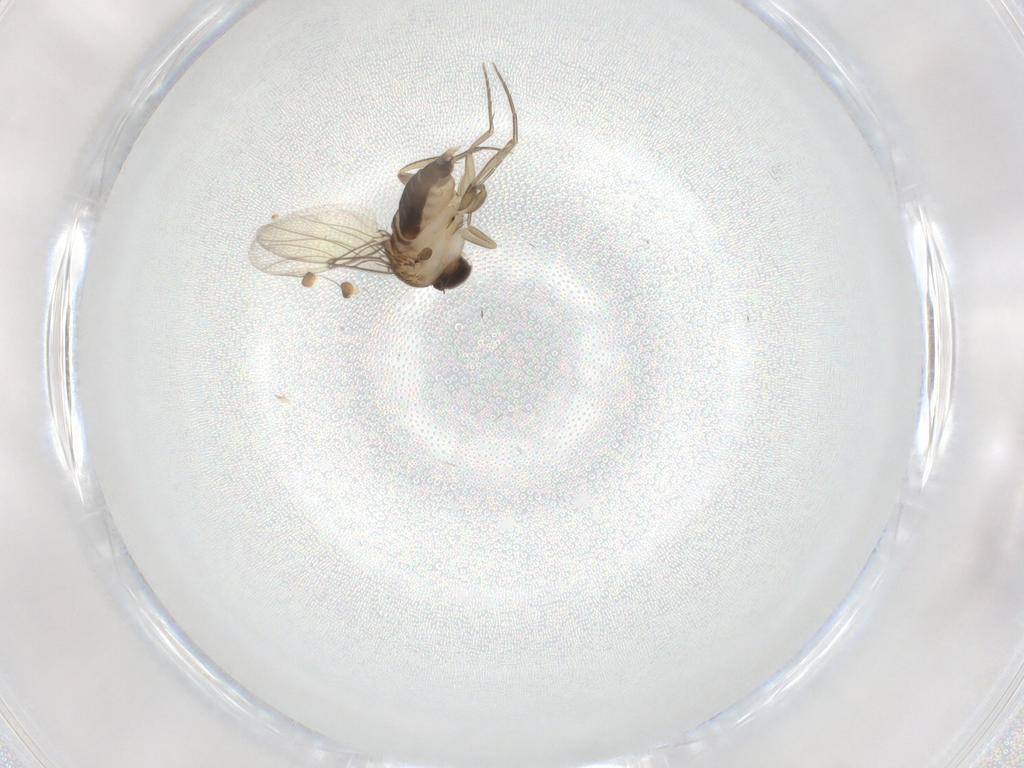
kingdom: Animalia
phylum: Arthropoda
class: Insecta
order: Diptera
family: Phoridae
